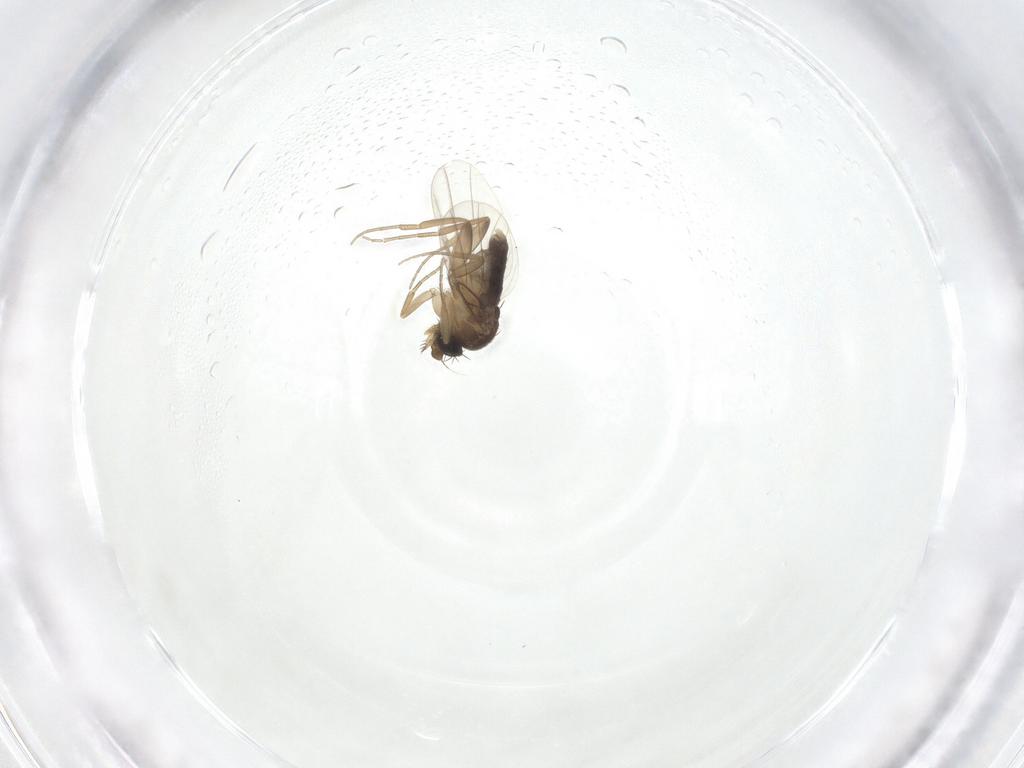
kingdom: Animalia
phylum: Arthropoda
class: Insecta
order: Diptera
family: Phoridae
